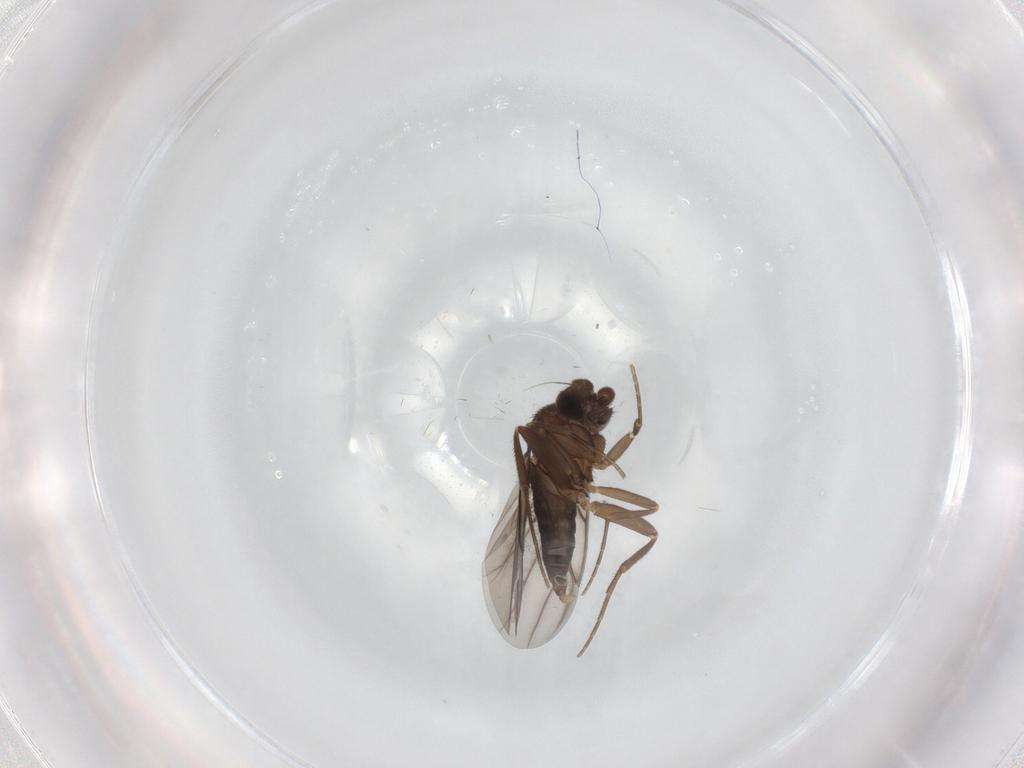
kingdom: Animalia
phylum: Arthropoda
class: Insecta
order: Diptera
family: Phoridae
